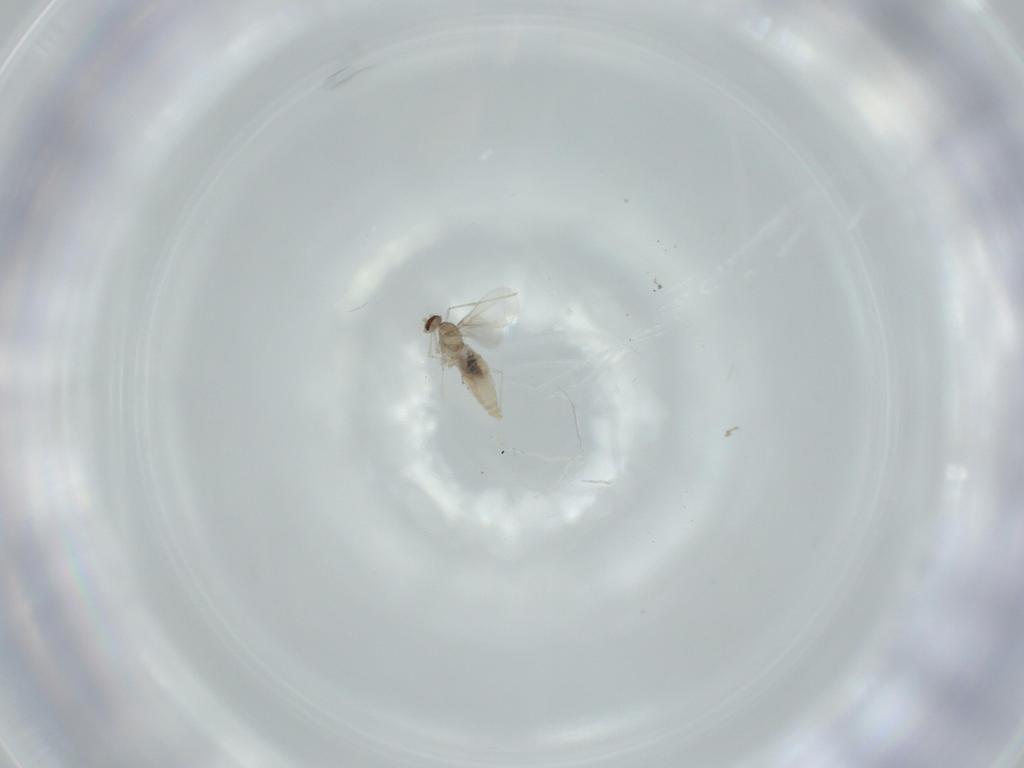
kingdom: Animalia
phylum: Arthropoda
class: Insecta
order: Diptera
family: Cecidomyiidae
